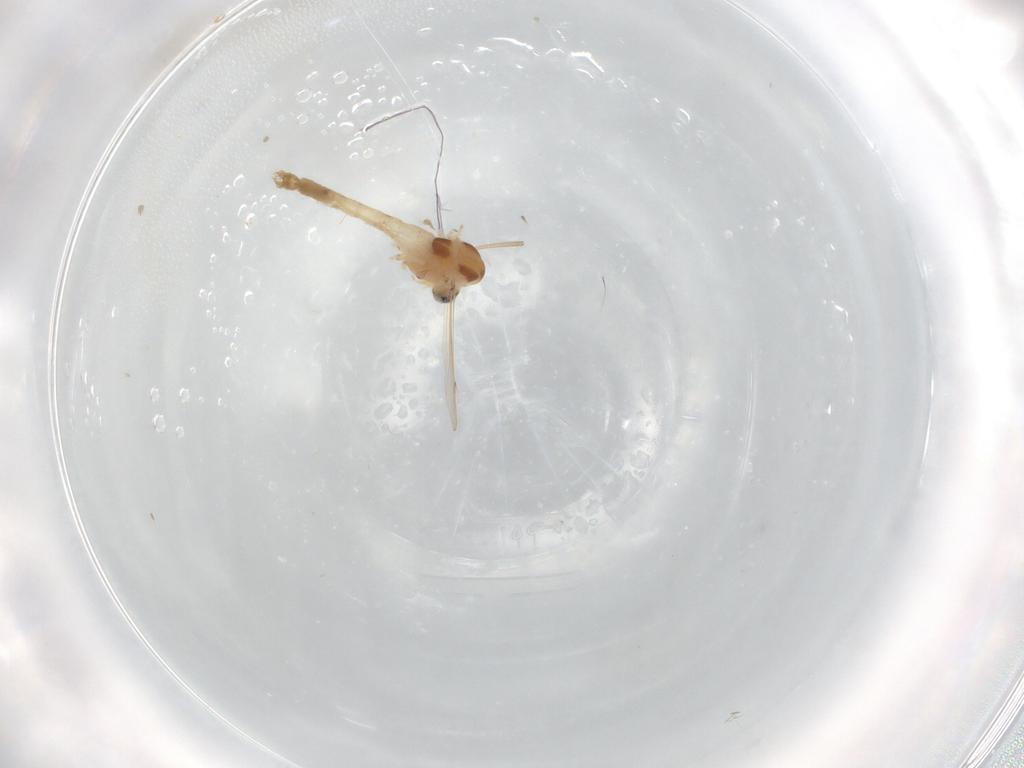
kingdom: Animalia
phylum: Arthropoda
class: Insecta
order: Diptera
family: Chironomidae
